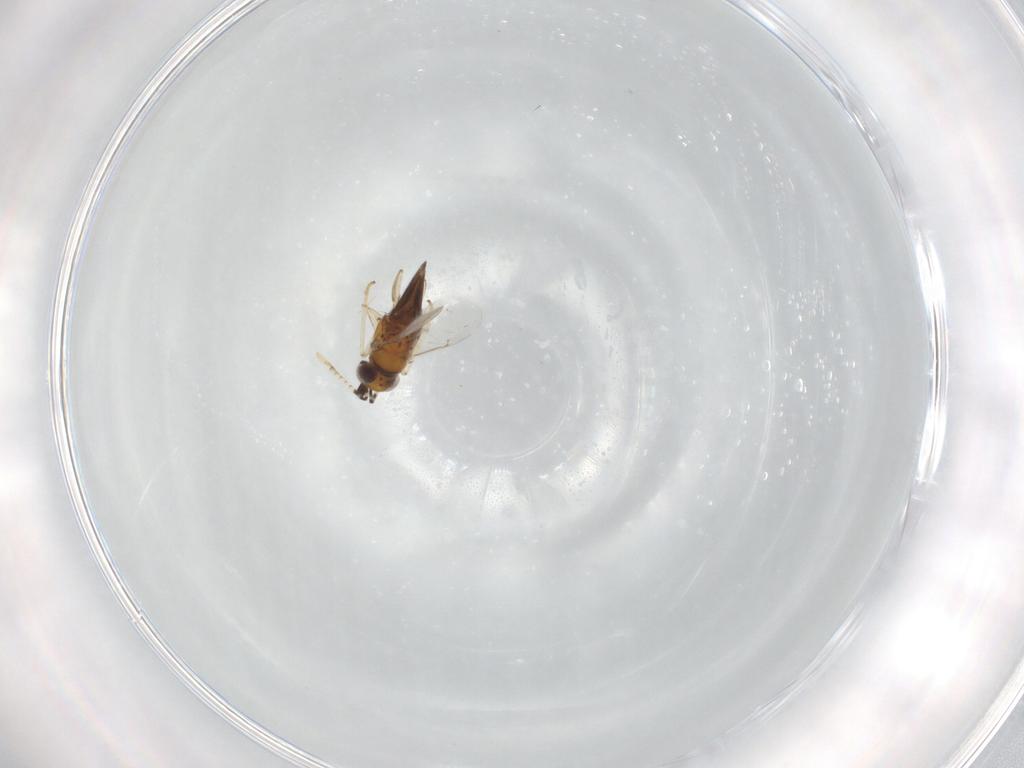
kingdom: Animalia
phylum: Arthropoda
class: Insecta
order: Hymenoptera
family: Encyrtidae
